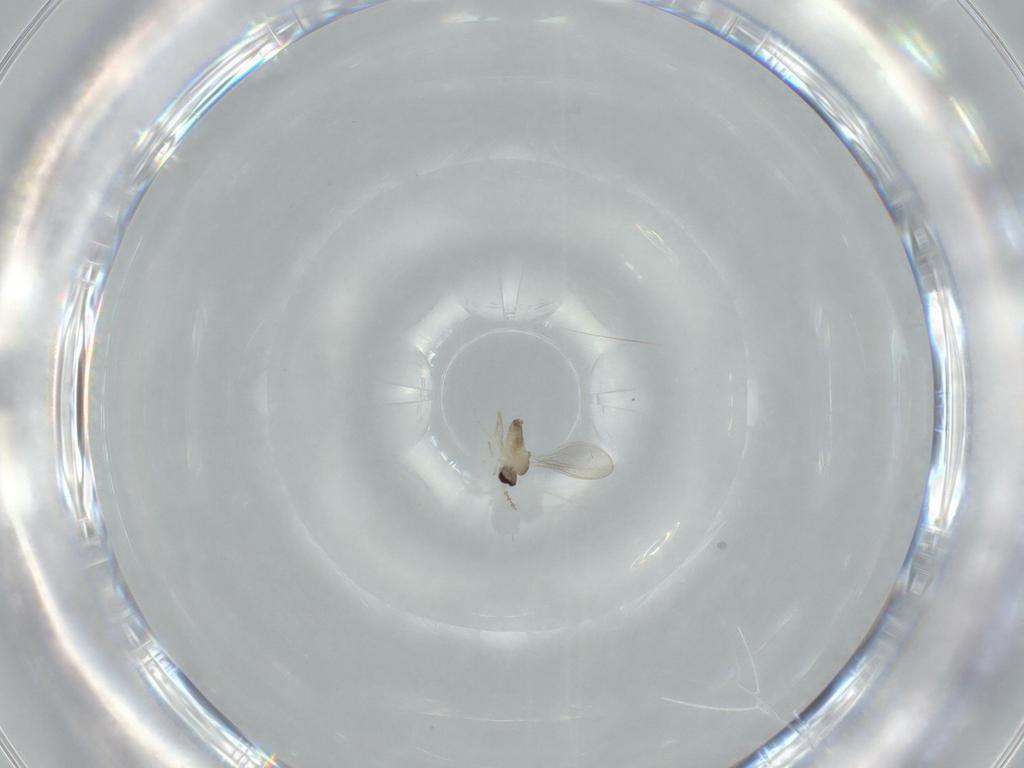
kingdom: Animalia
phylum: Arthropoda
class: Insecta
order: Diptera
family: Cecidomyiidae
